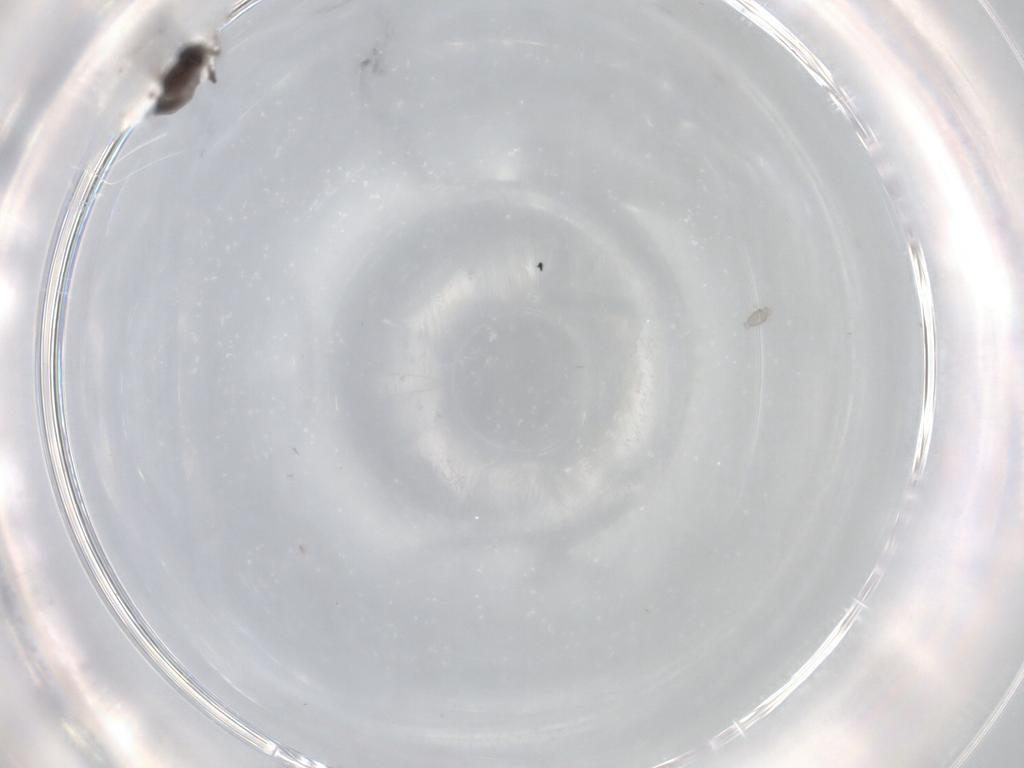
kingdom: Animalia
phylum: Arthropoda
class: Insecta
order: Diptera
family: Chironomidae
